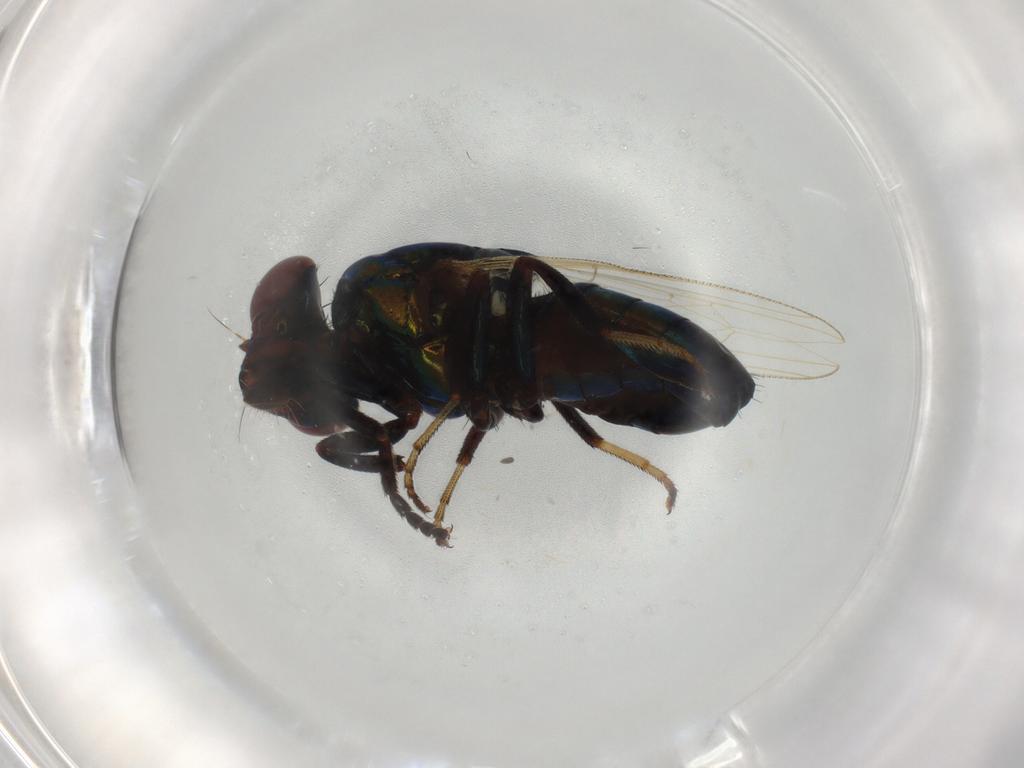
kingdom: Animalia
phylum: Arthropoda
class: Insecta
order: Diptera
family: Ulidiidae
